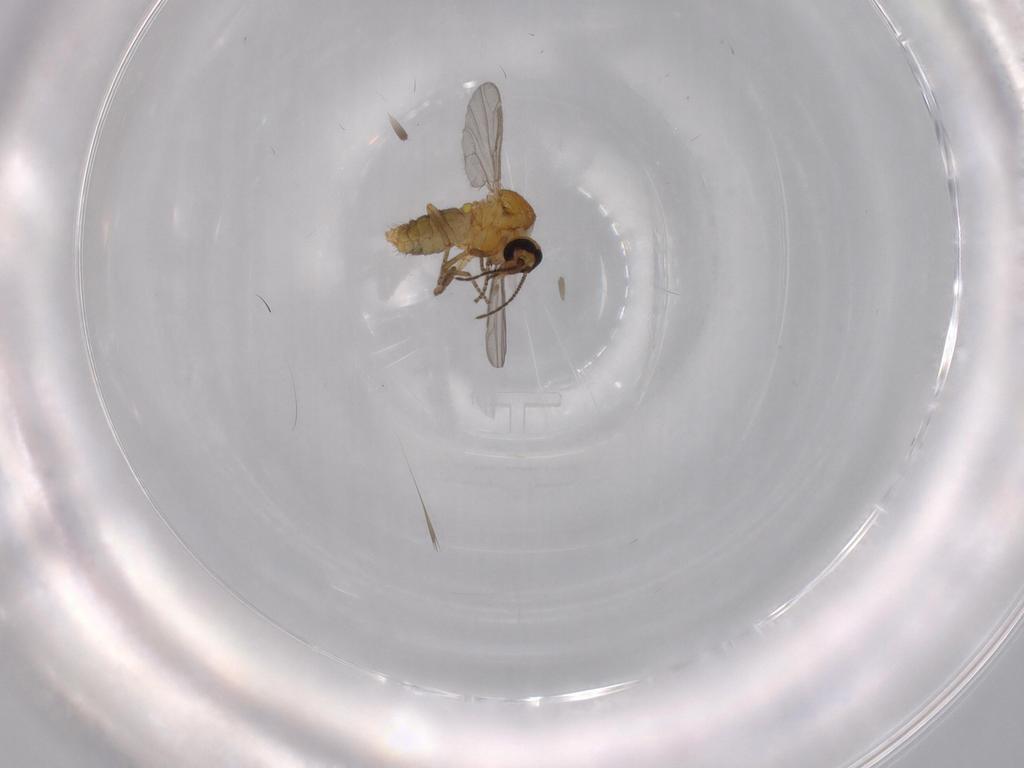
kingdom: Animalia
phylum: Arthropoda
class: Insecta
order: Diptera
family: Ceratopogonidae
